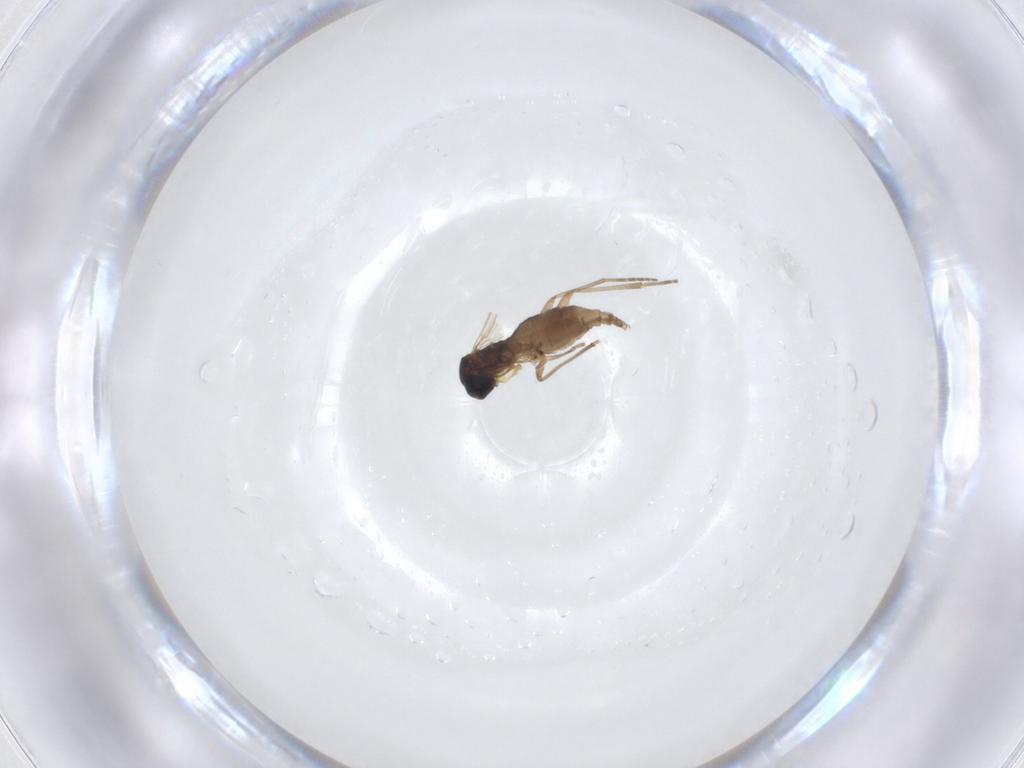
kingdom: Animalia
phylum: Arthropoda
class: Insecta
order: Diptera
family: Sciaridae
